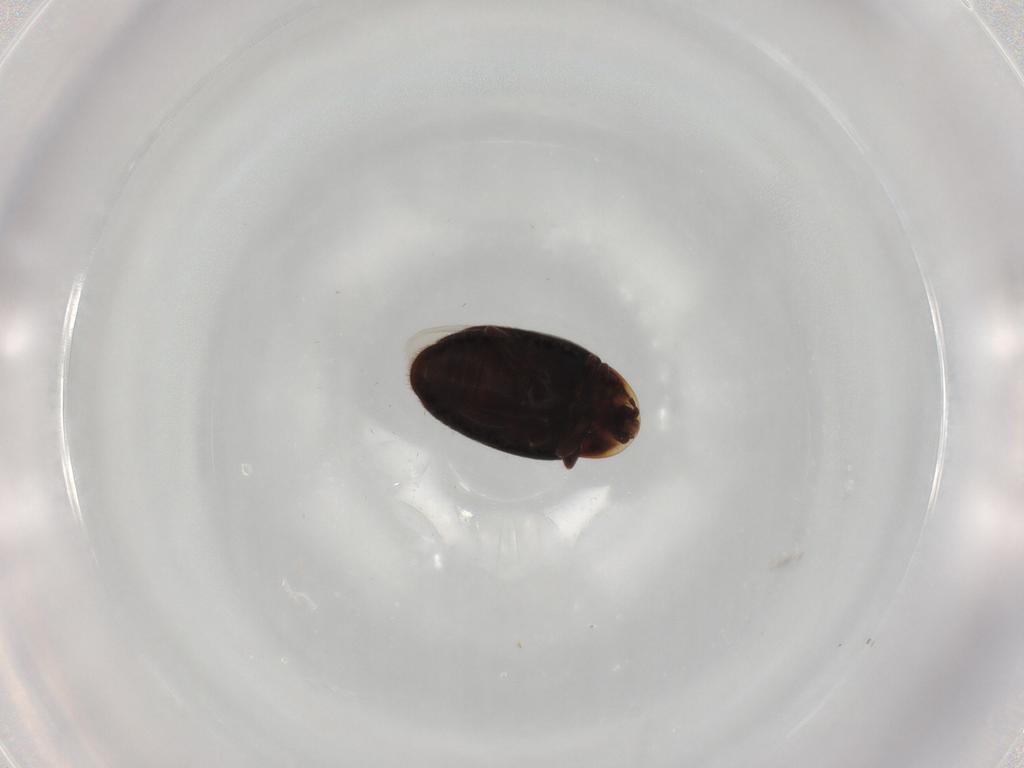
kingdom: Animalia
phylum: Arthropoda
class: Insecta
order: Coleoptera
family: Corylophidae
